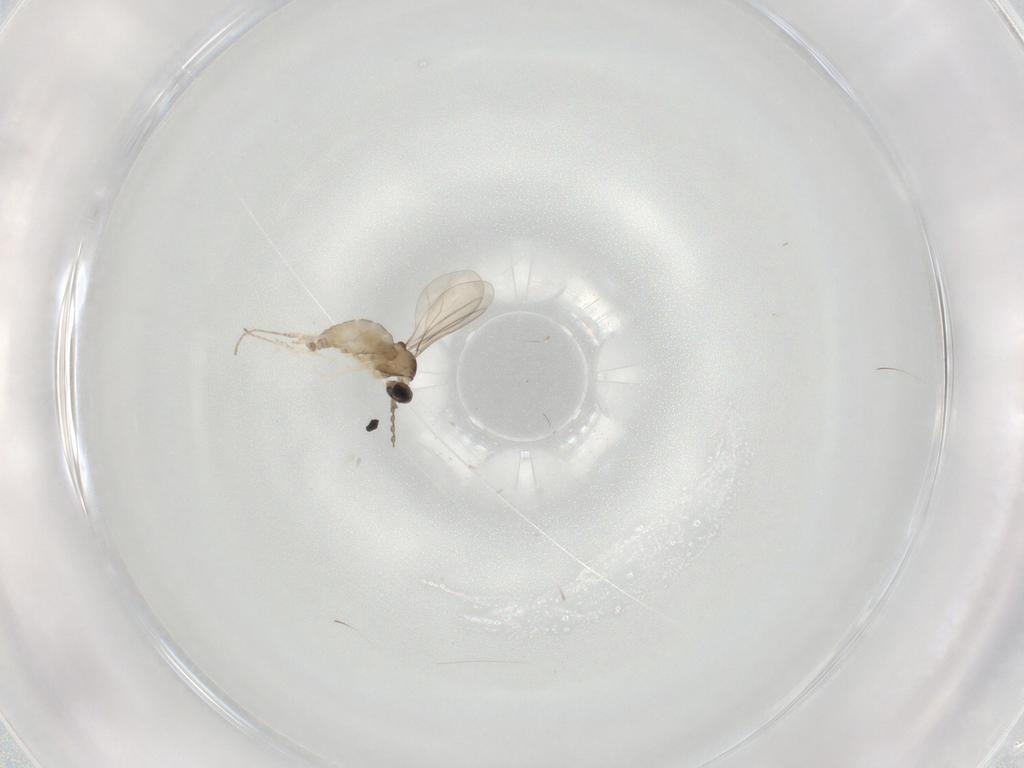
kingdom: Animalia
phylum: Arthropoda
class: Insecta
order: Diptera
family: Cecidomyiidae
